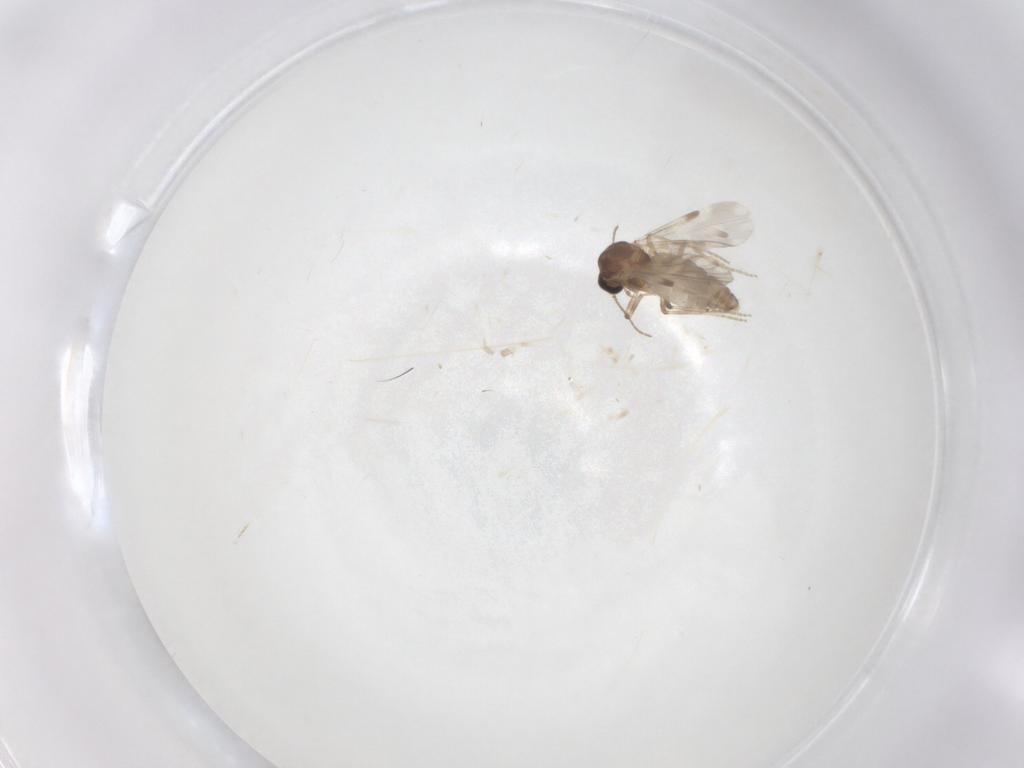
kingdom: Animalia
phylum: Arthropoda
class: Insecta
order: Diptera
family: Ceratopogonidae
